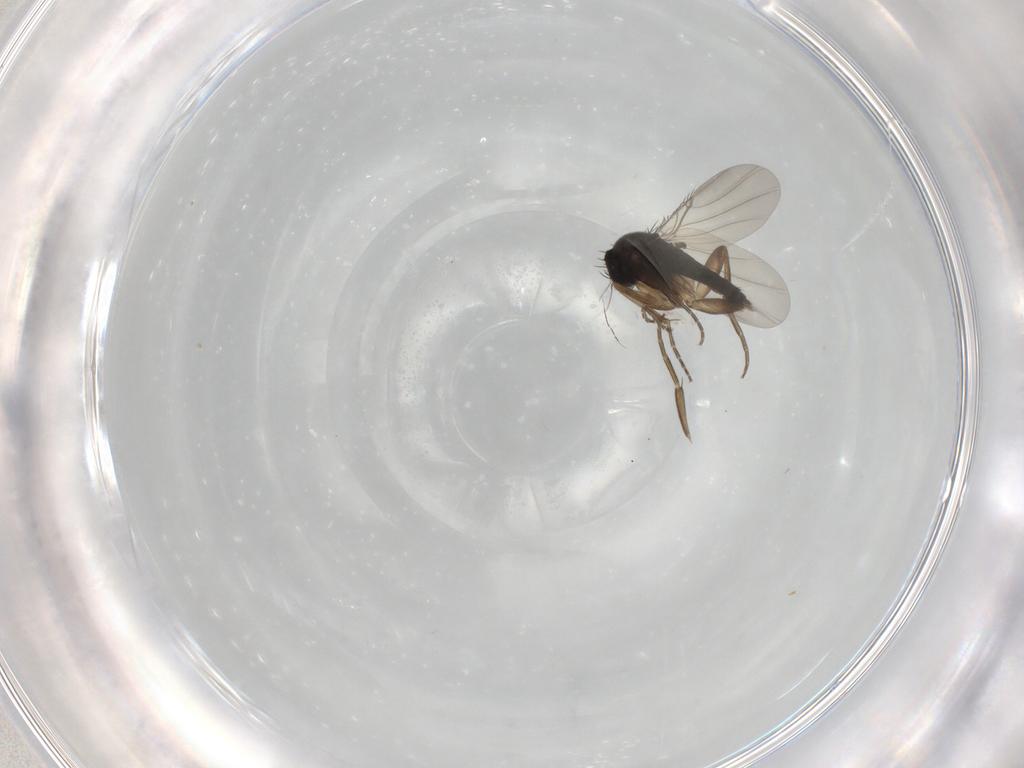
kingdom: Animalia
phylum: Arthropoda
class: Insecta
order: Diptera
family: Phoridae
